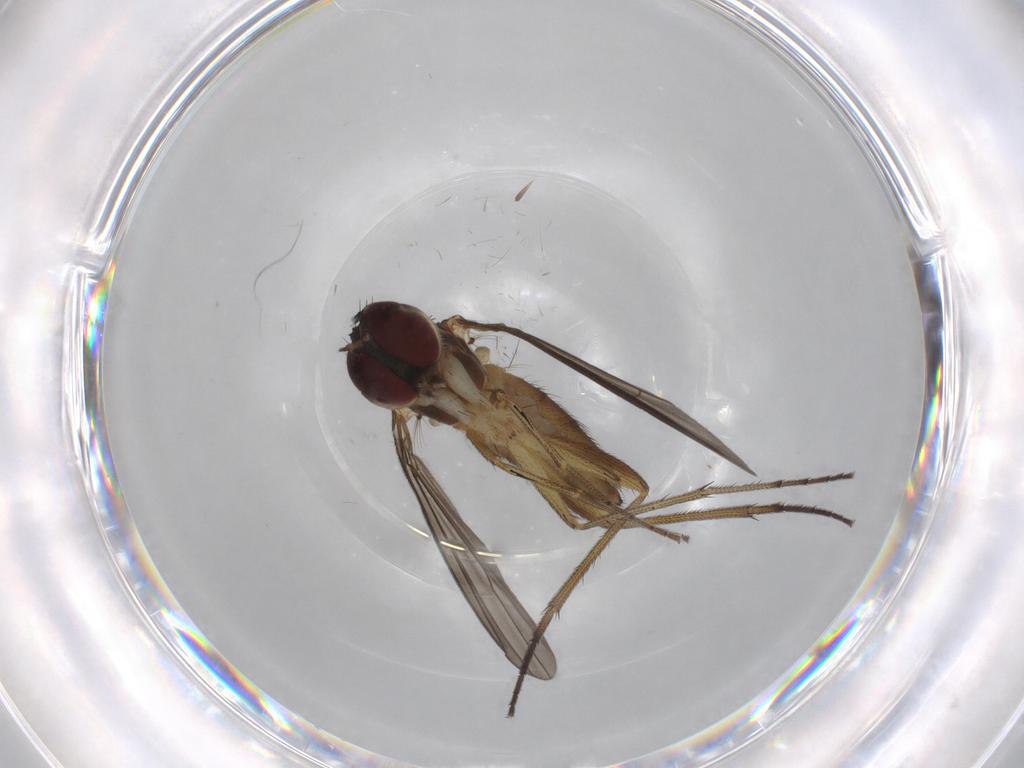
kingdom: Animalia
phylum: Arthropoda
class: Insecta
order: Diptera
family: Dolichopodidae
